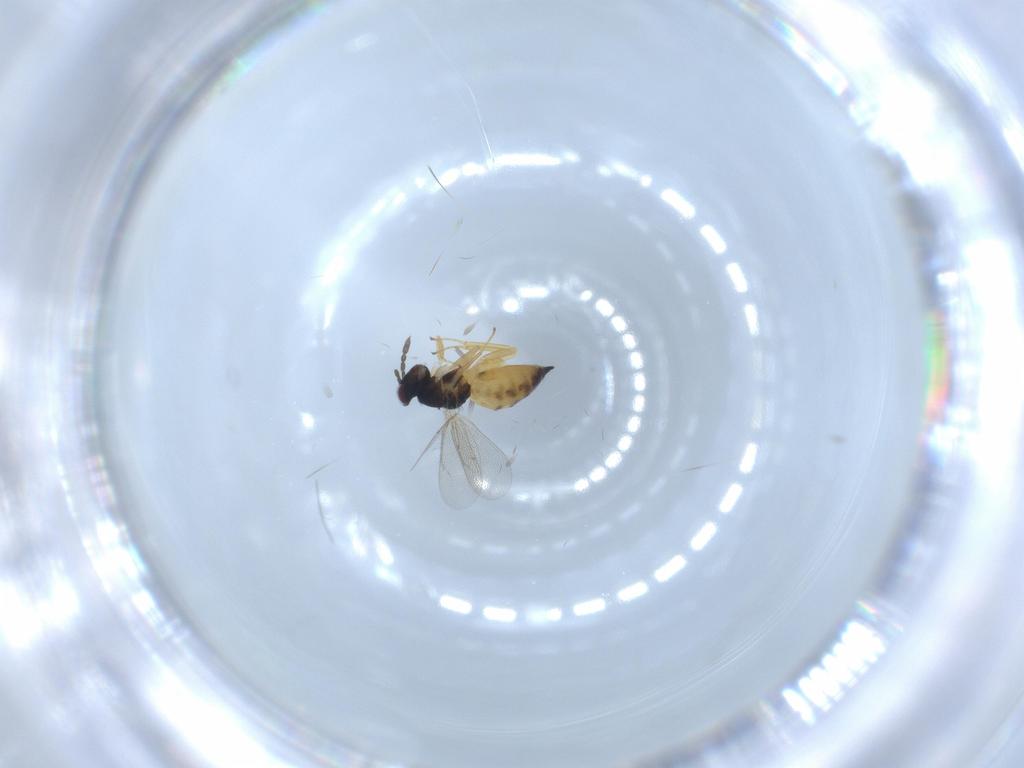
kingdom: Animalia
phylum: Arthropoda
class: Insecta
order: Hymenoptera
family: Eulophidae
